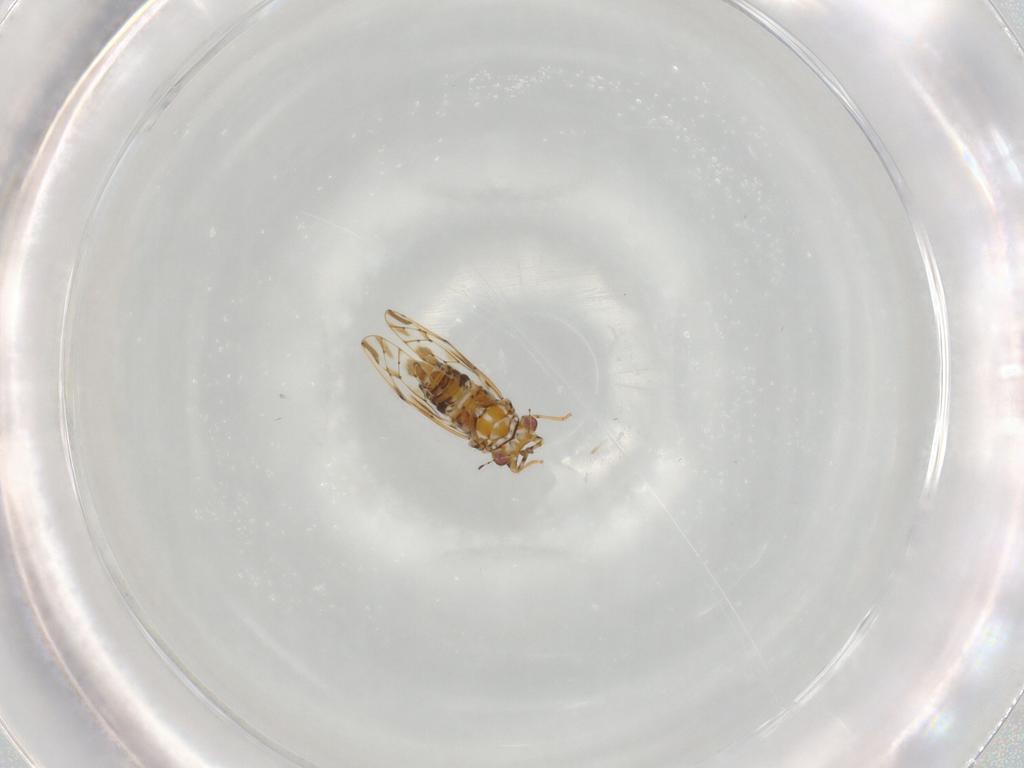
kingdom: Animalia
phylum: Arthropoda
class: Insecta
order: Hemiptera
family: Psylloidea_incertae_sedis
